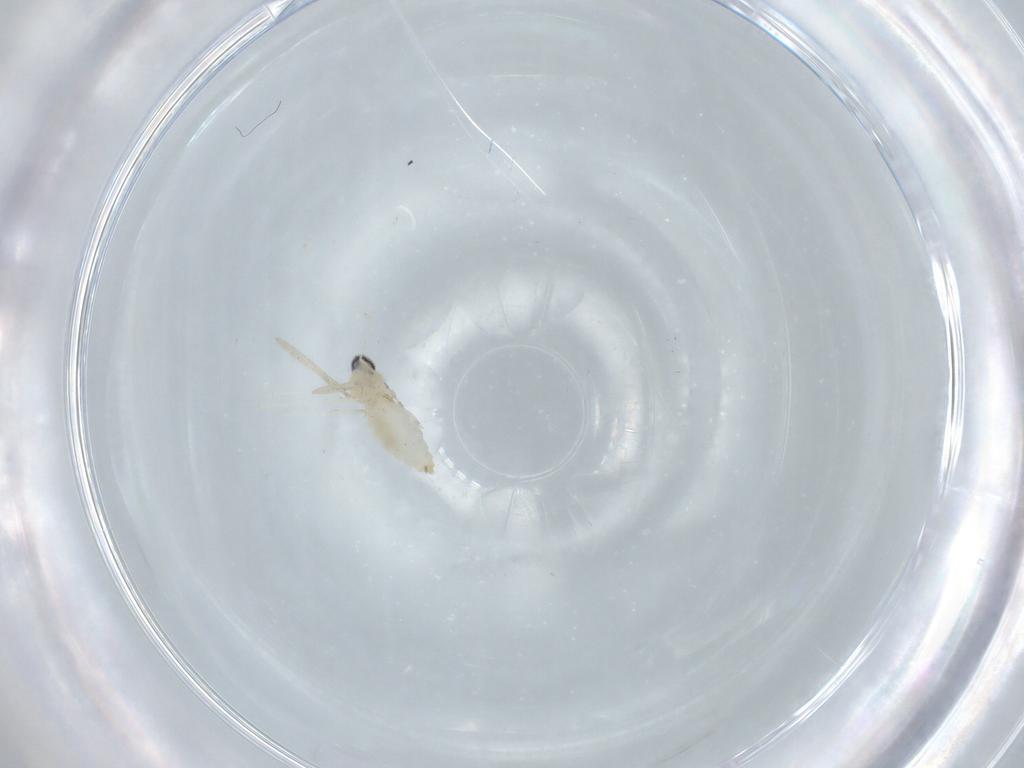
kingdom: Animalia
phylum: Arthropoda
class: Insecta
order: Diptera
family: Cecidomyiidae
